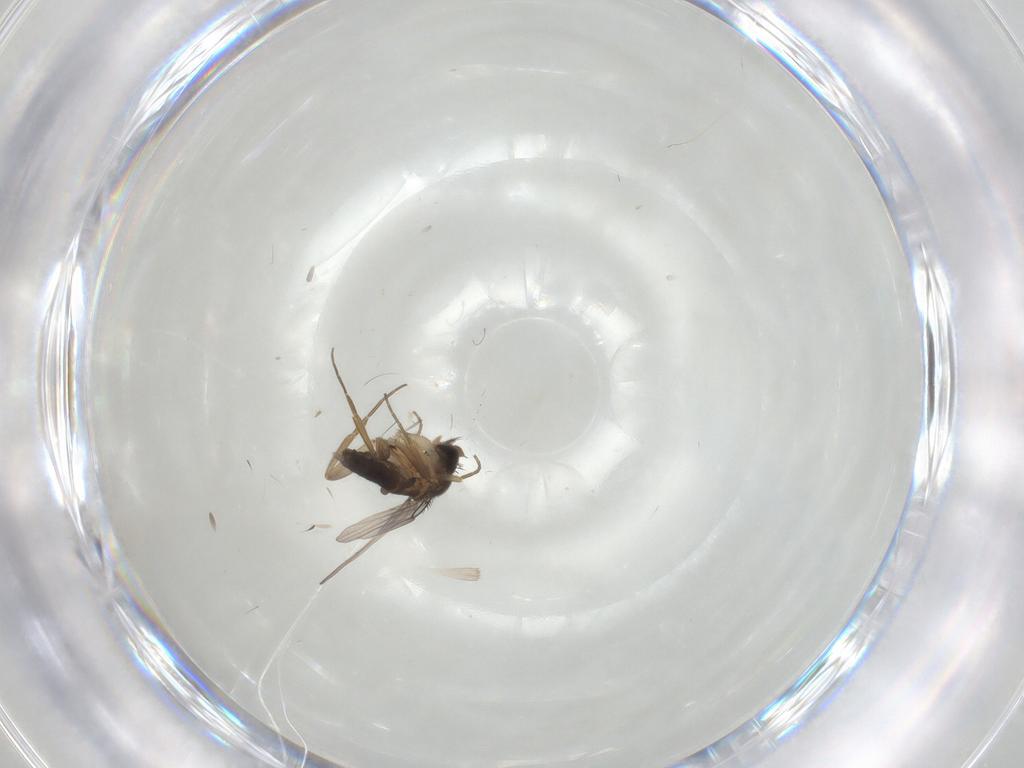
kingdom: Animalia
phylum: Arthropoda
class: Insecta
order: Diptera
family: Phoridae
